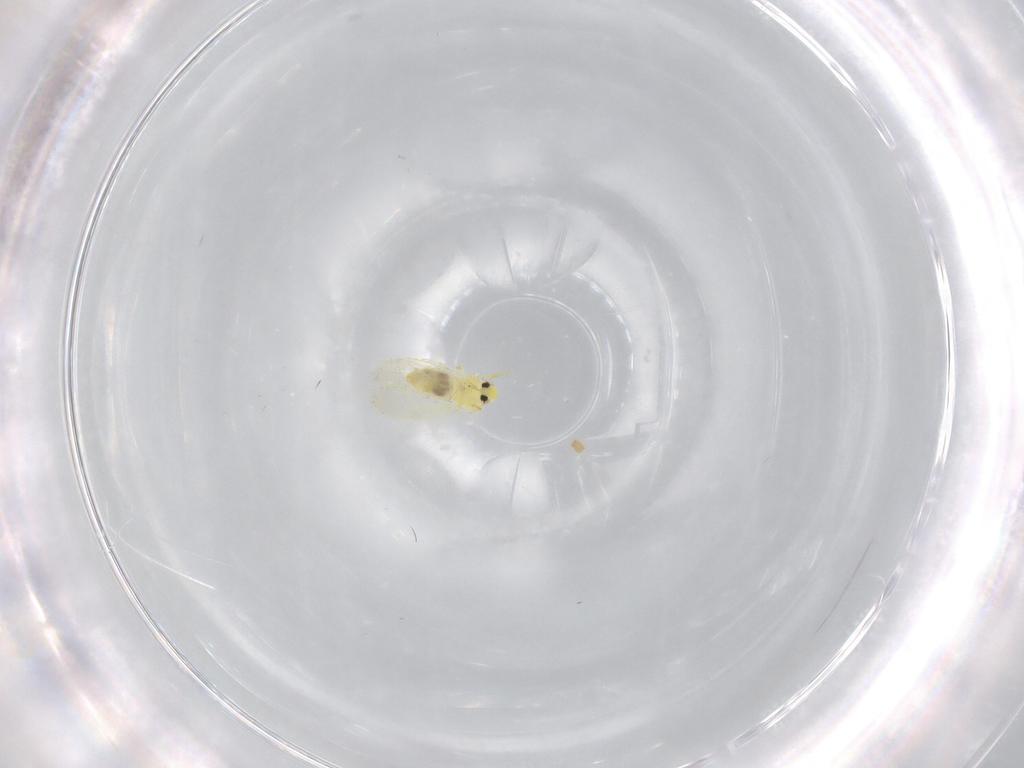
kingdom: Animalia
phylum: Arthropoda
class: Insecta
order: Hemiptera
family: Aleyrodidae
